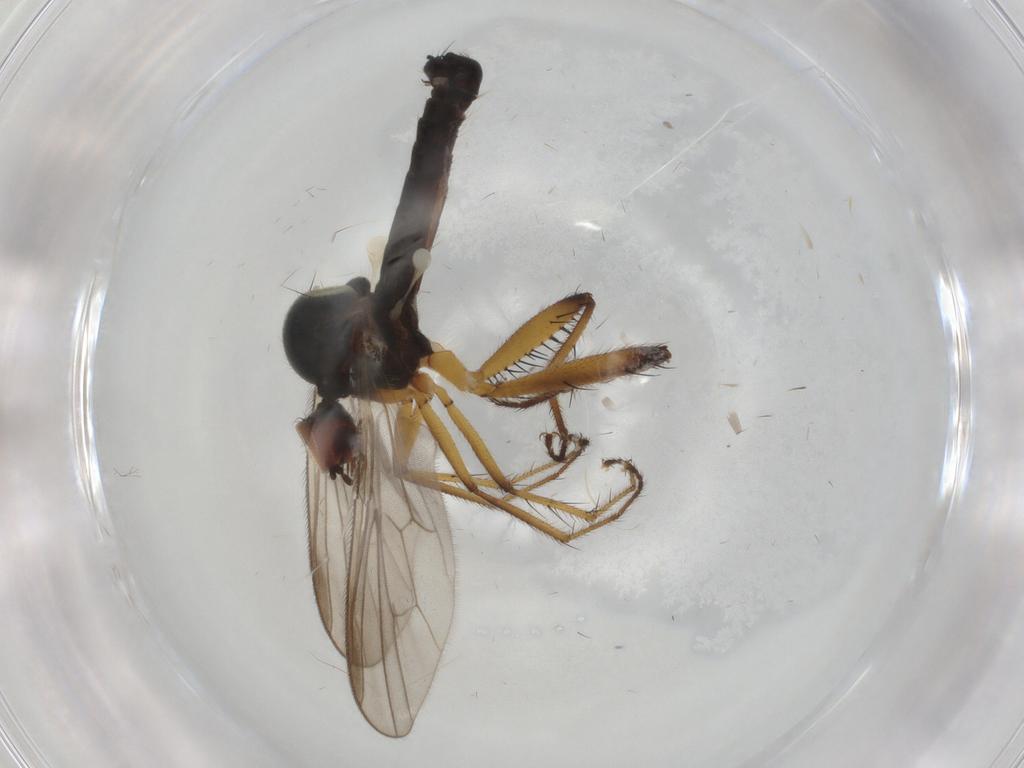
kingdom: Animalia
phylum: Arthropoda
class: Insecta
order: Diptera
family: Hybotidae
